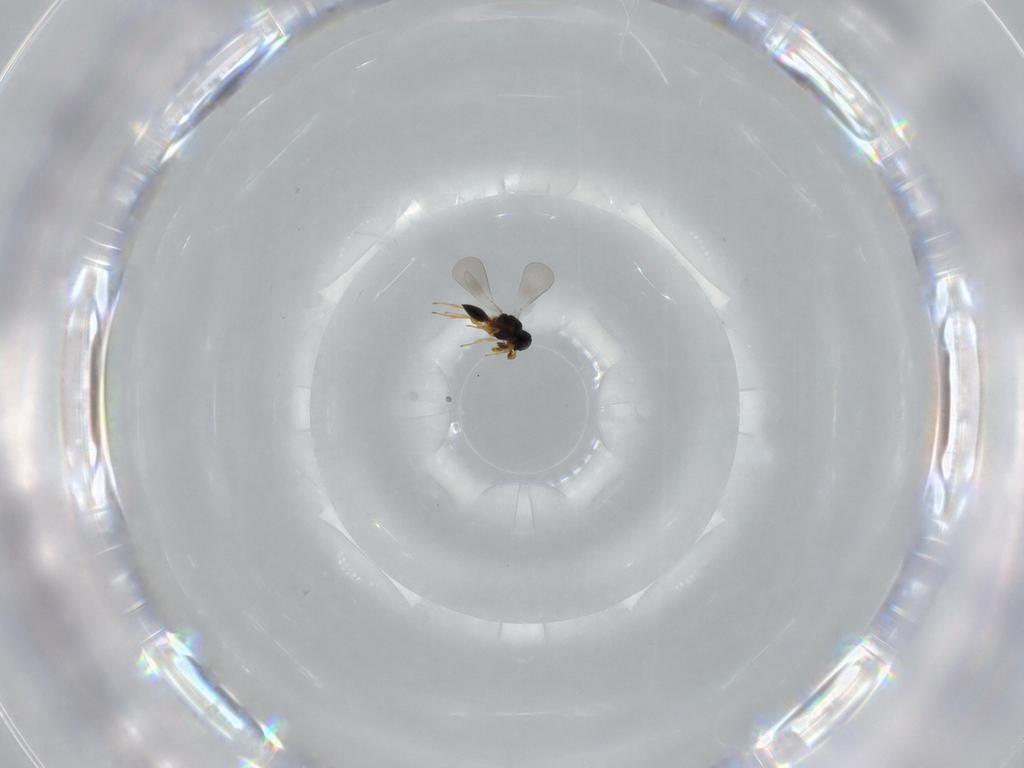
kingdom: Animalia
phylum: Arthropoda
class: Insecta
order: Hymenoptera
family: Platygastridae
